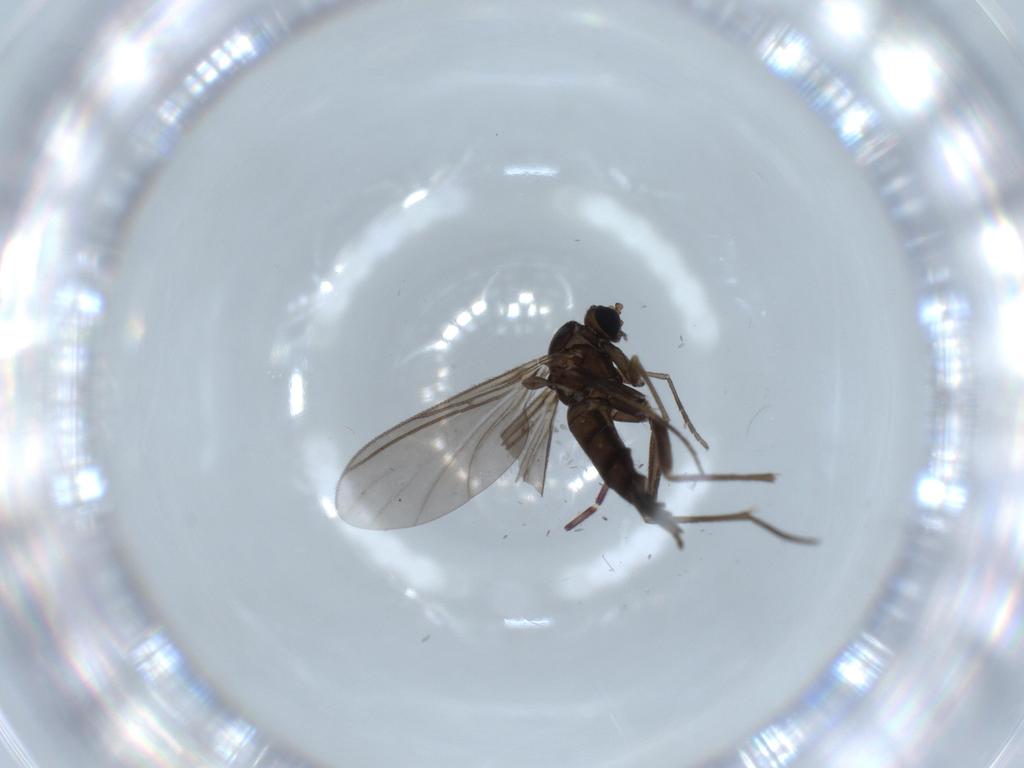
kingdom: Animalia
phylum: Arthropoda
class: Insecta
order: Diptera
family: Sciaridae
